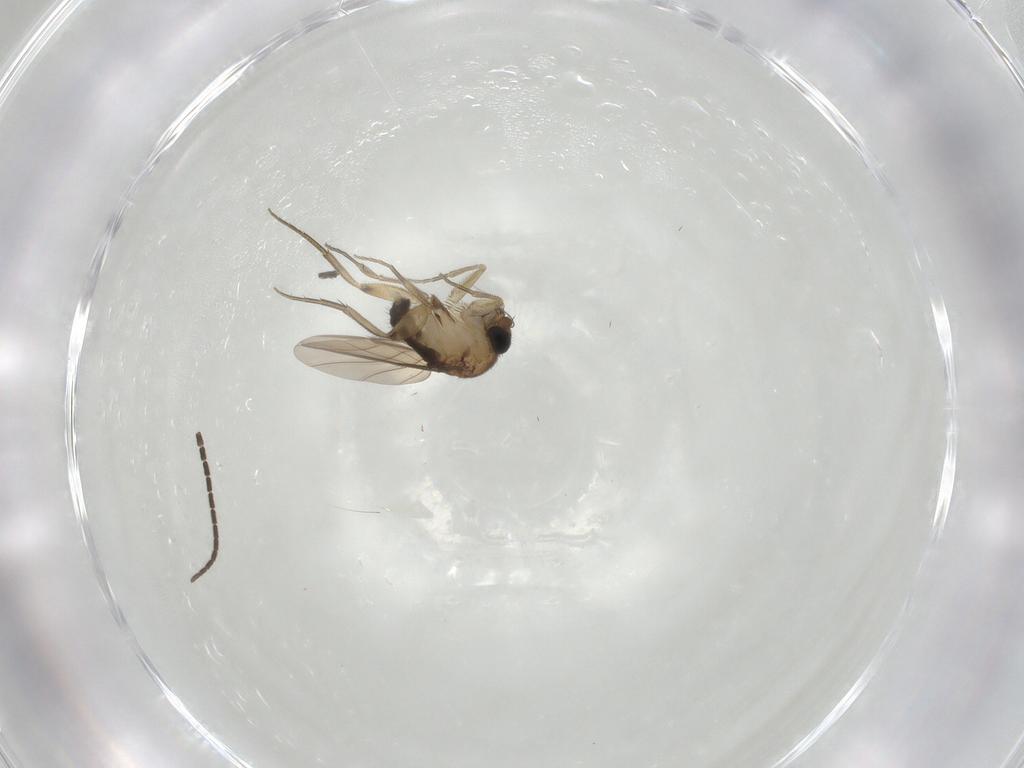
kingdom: Animalia
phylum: Arthropoda
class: Insecta
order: Diptera
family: Phoridae
